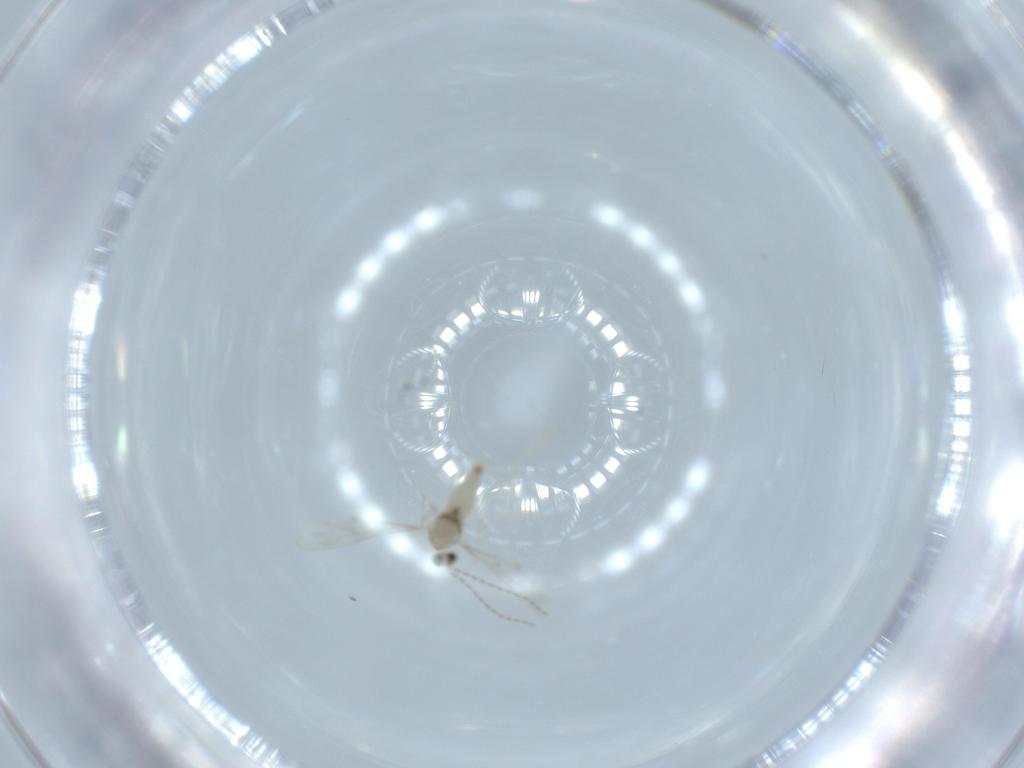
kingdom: Animalia
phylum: Arthropoda
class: Insecta
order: Diptera
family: Cecidomyiidae
